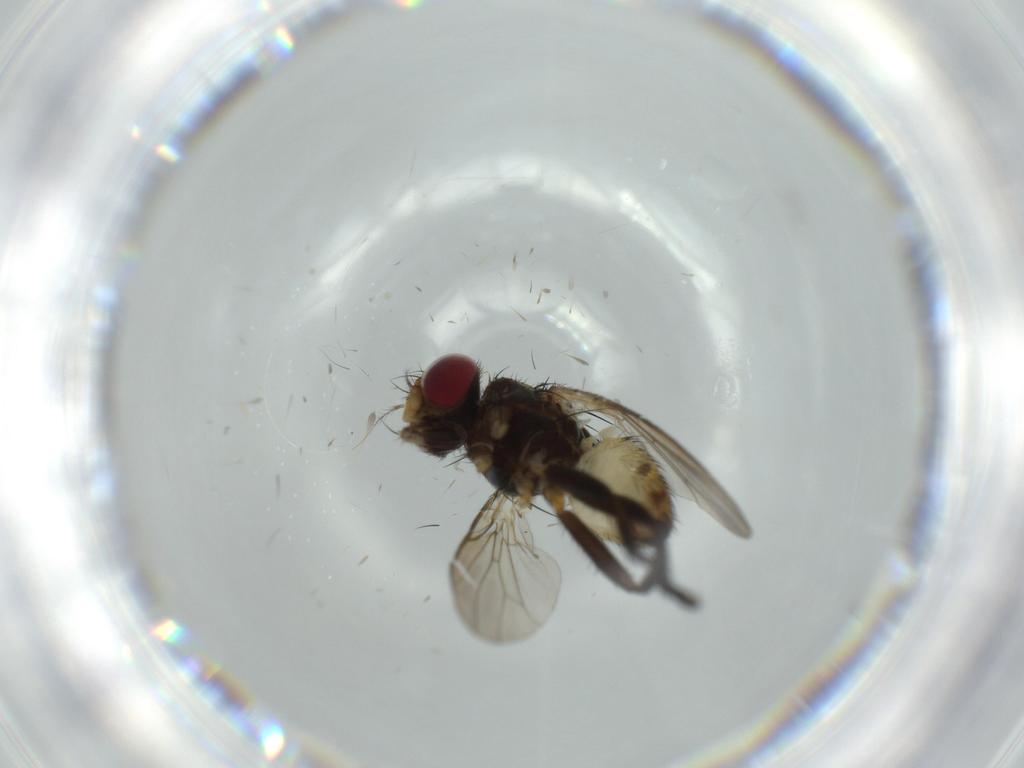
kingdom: Animalia
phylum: Arthropoda
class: Insecta
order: Diptera
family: Anthomyiidae
